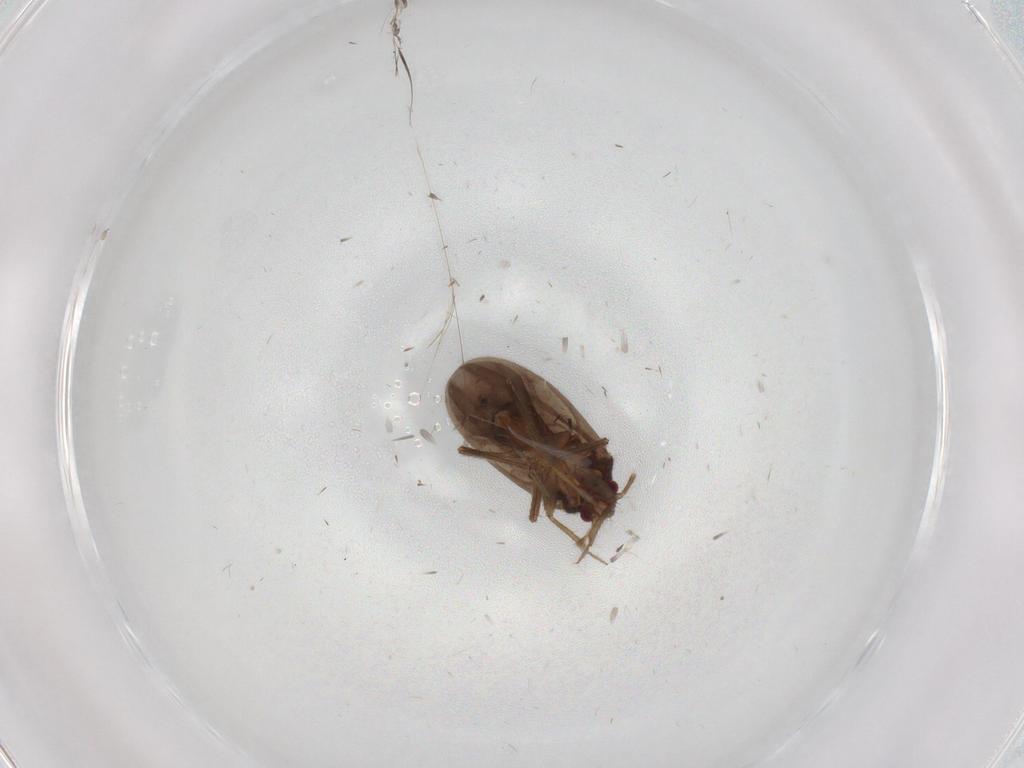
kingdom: Animalia
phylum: Arthropoda
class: Insecta
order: Hemiptera
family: Ceratocombidae
